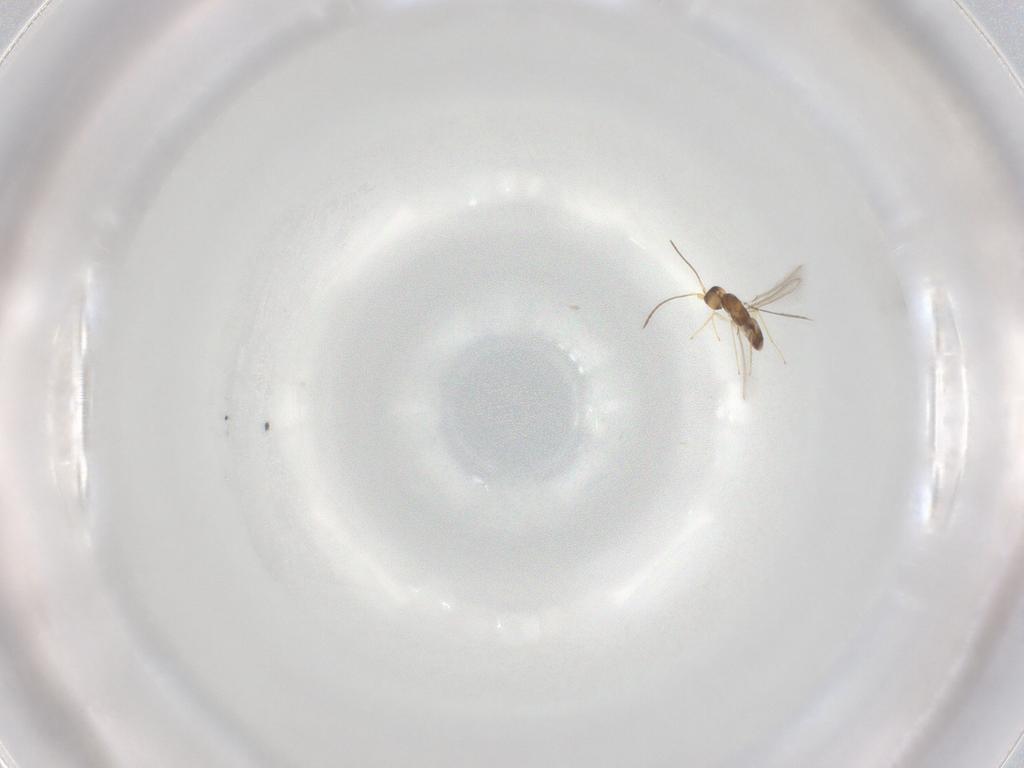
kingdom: Animalia
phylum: Arthropoda
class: Insecta
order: Hymenoptera
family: Mymaridae
